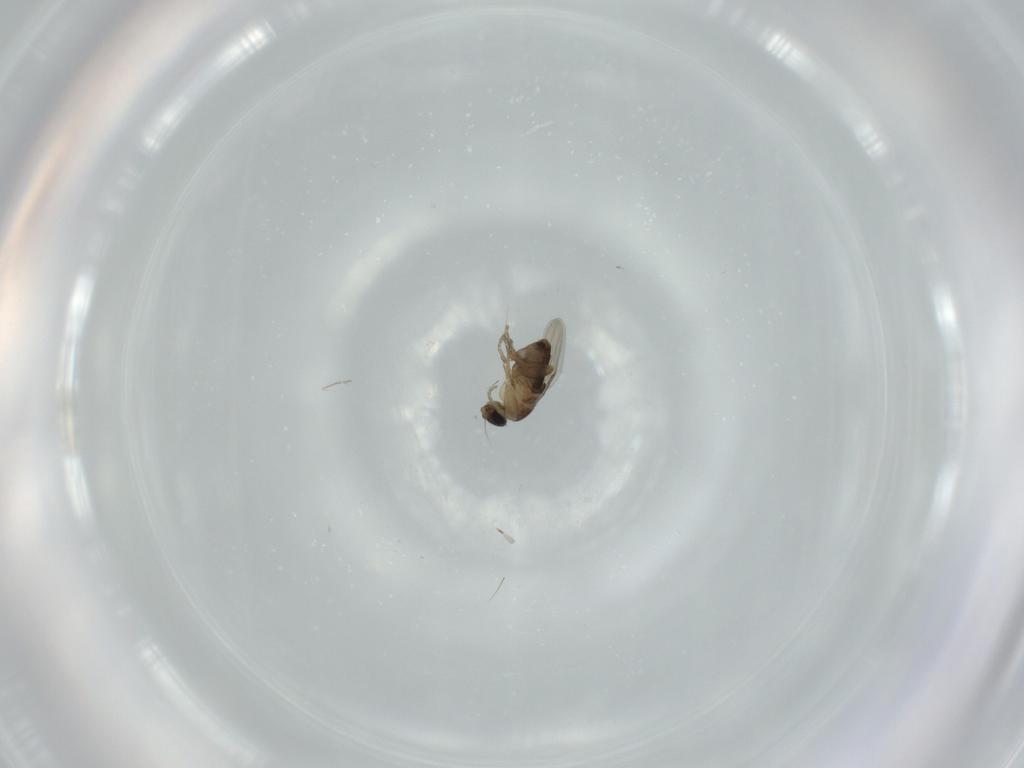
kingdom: Animalia
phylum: Arthropoda
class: Insecta
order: Diptera
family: Phoridae
